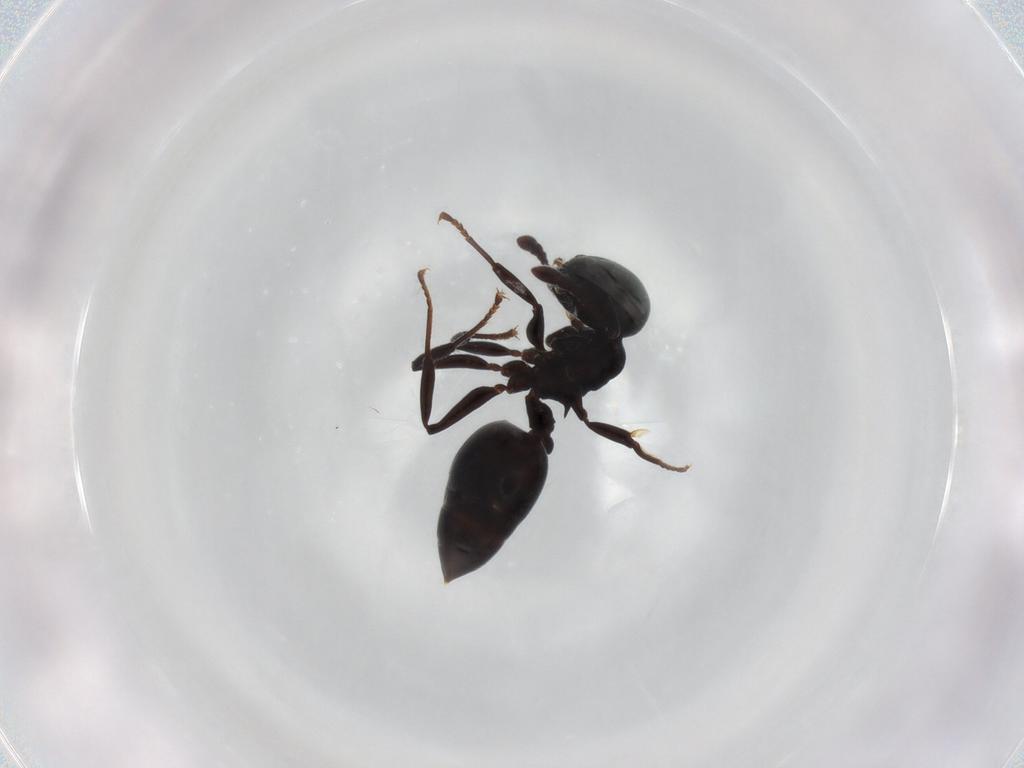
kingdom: Animalia
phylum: Arthropoda
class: Insecta
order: Hymenoptera
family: Formicidae
